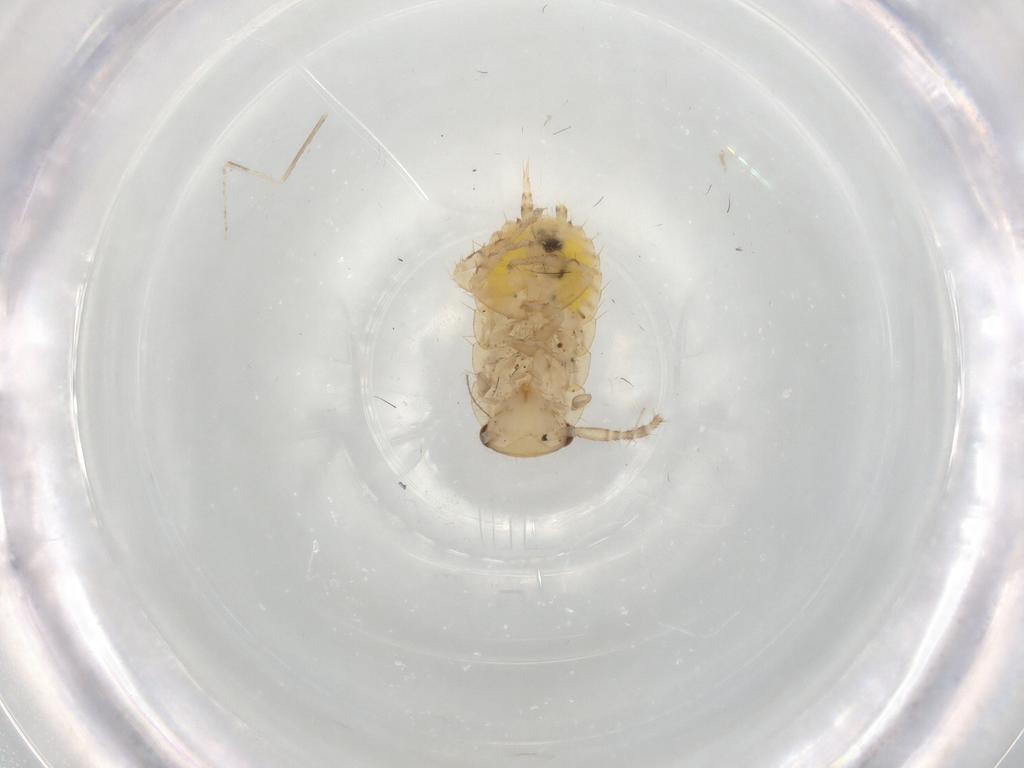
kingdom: Animalia
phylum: Arthropoda
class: Insecta
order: Blattodea
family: Ectobiidae
